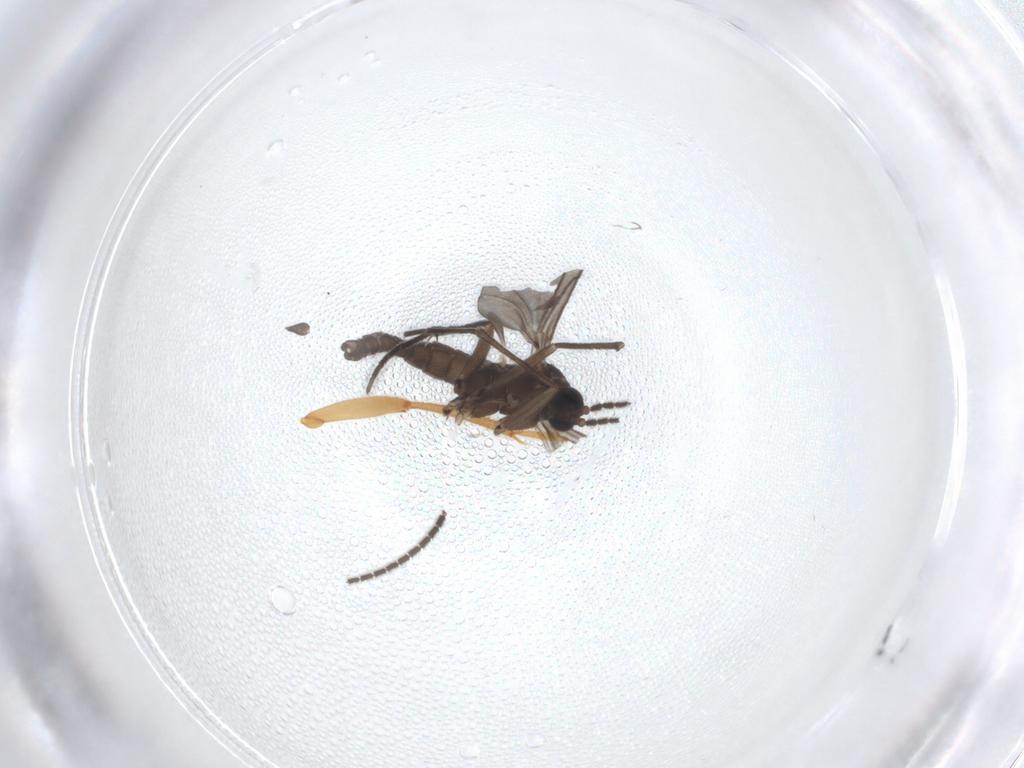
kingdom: Animalia
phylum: Arthropoda
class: Insecta
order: Diptera
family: Sciaridae
